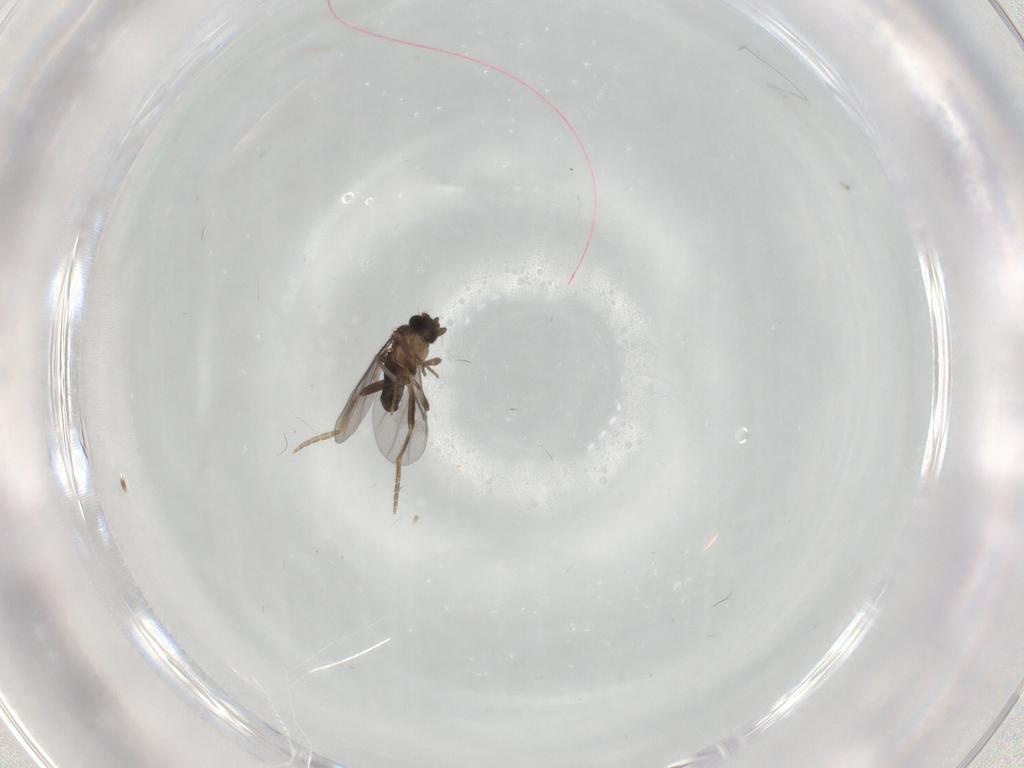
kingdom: Animalia
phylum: Arthropoda
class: Insecta
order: Diptera
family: Chironomidae
